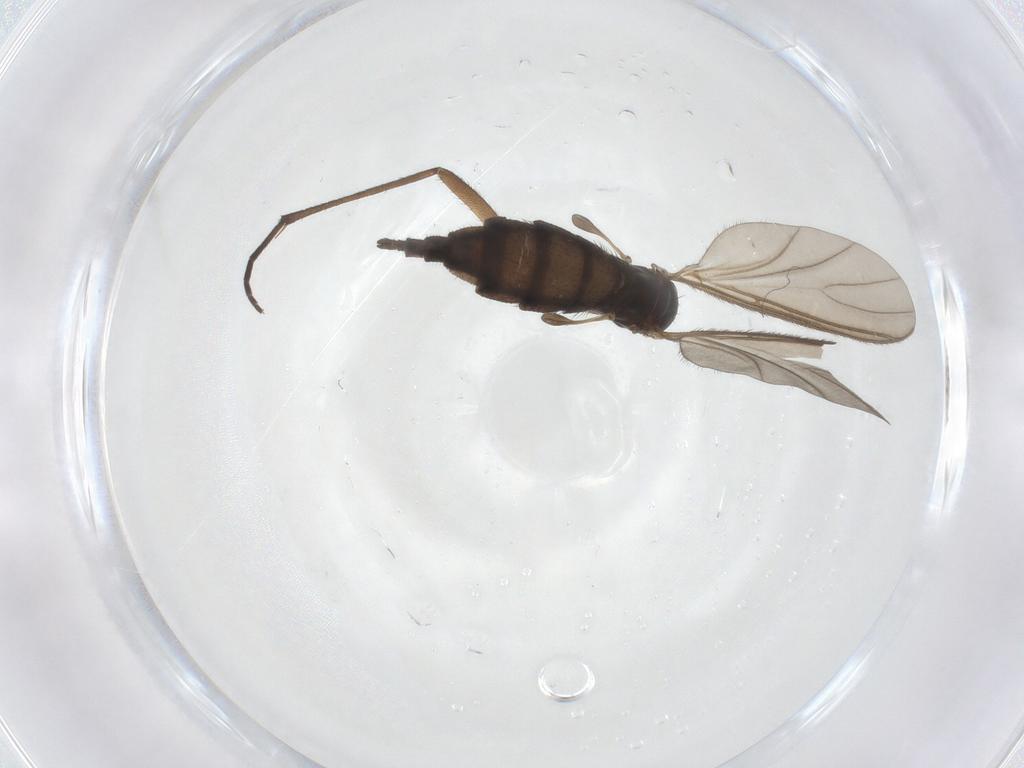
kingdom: Animalia
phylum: Arthropoda
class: Insecta
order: Diptera
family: Sciaridae
